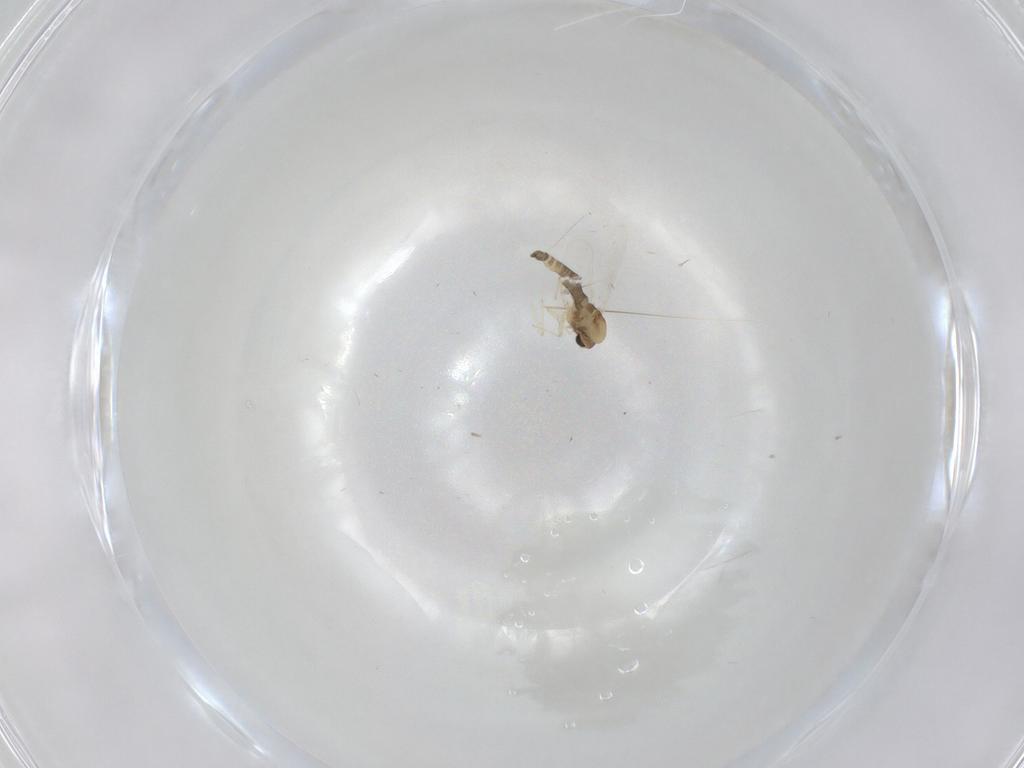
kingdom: Animalia
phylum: Arthropoda
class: Insecta
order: Diptera
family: Chironomidae
